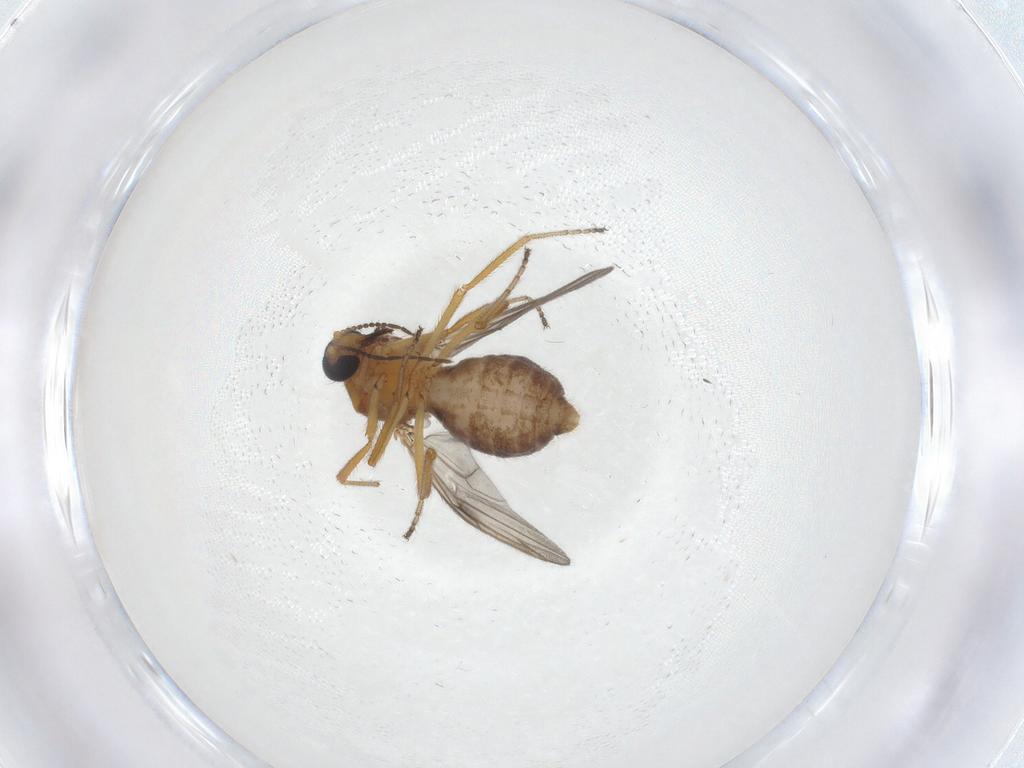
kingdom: Animalia
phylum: Arthropoda
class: Insecta
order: Diptera
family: Ceratopogonidae
